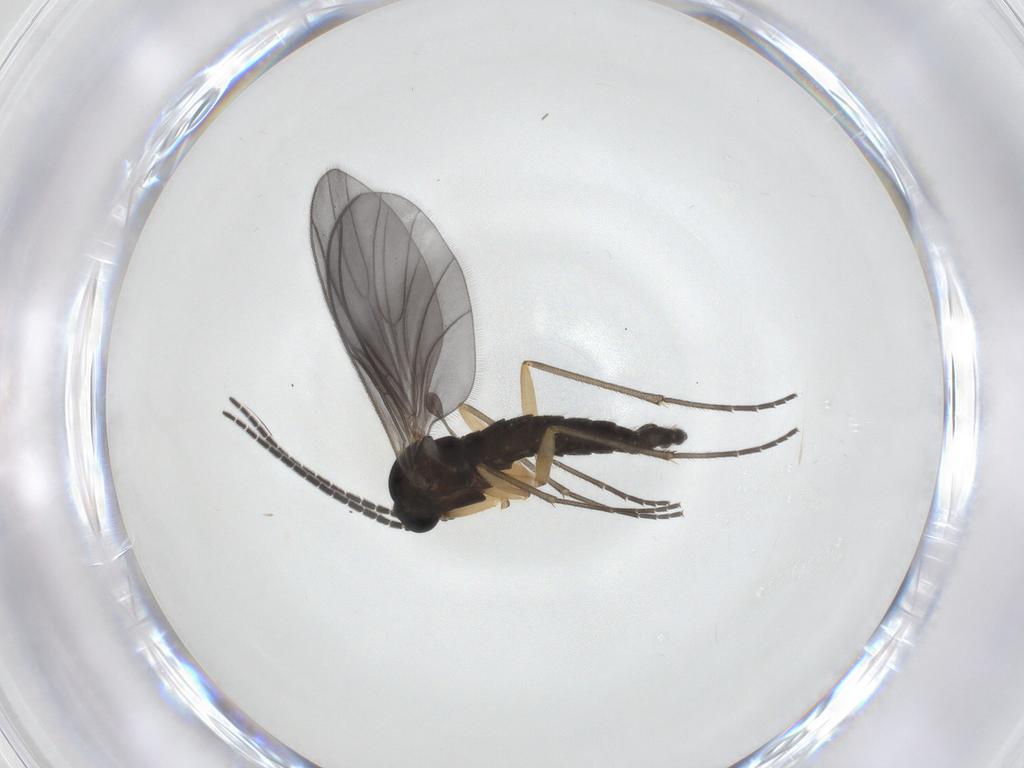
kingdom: Animalia
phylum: Arthropoda
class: Insecta
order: Diptera
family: Sciaridae
